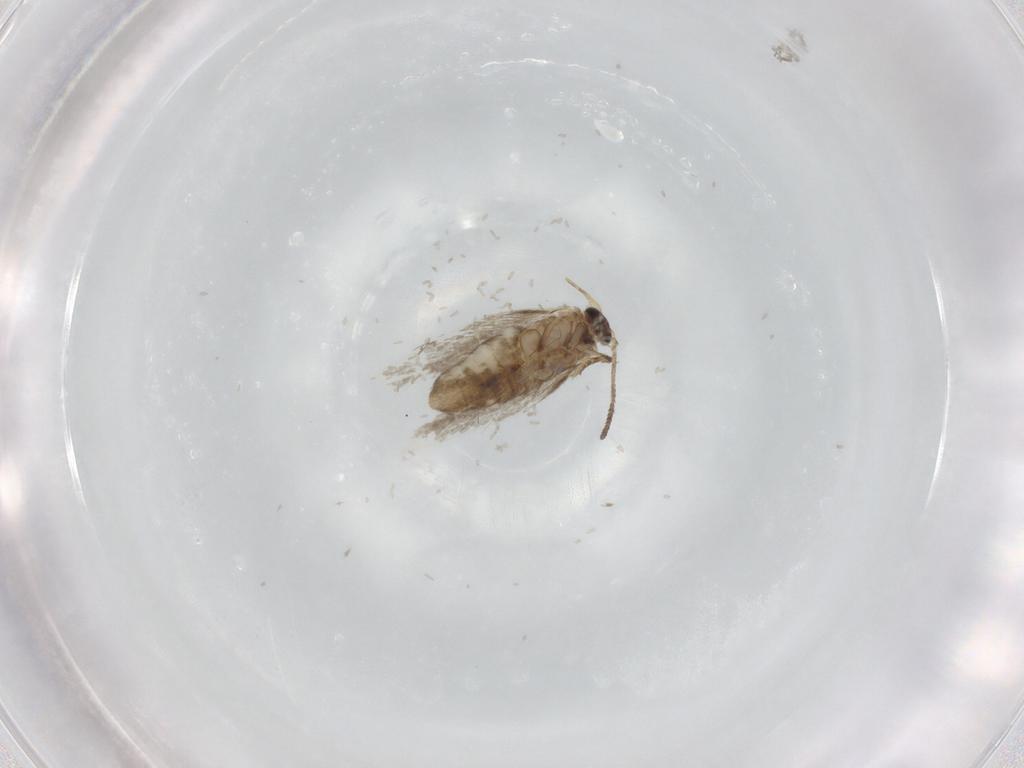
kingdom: Animalia
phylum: Arthropoda
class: Insecta
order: Lepidoptera
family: Nepticulidae
